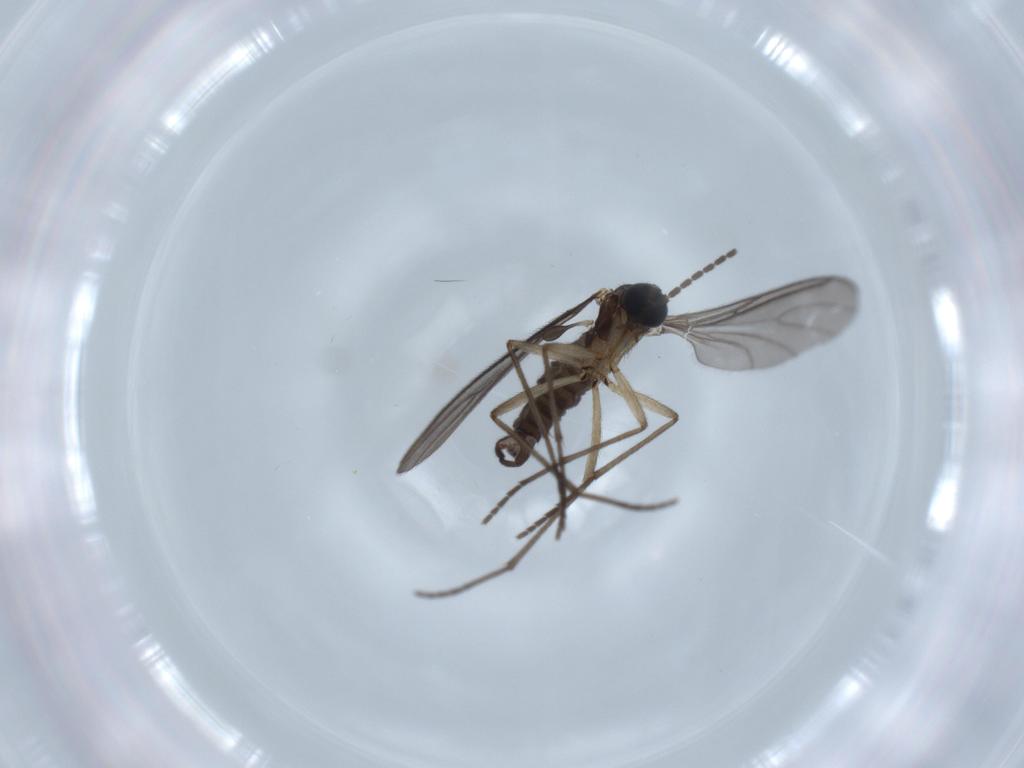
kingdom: Animalia
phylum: Arthropoda
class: Insecta
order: Diptera
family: Sciaridae
